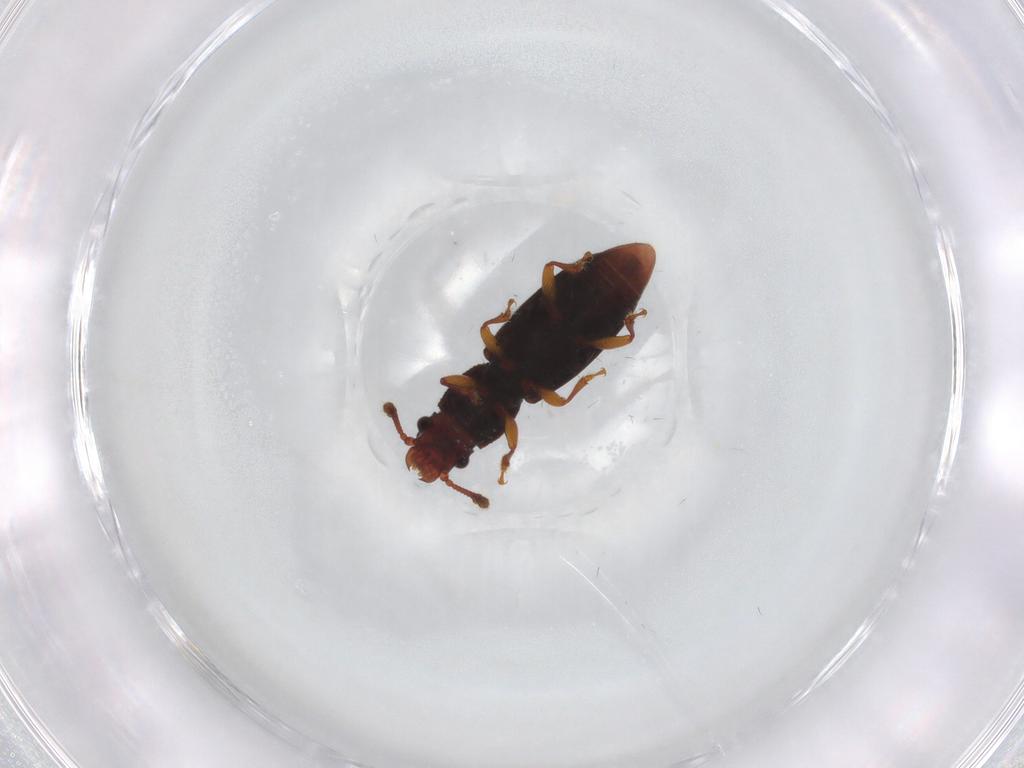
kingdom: Animalia
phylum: Arthropoda
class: Insecta
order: Coleoptera
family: Monotomidae
